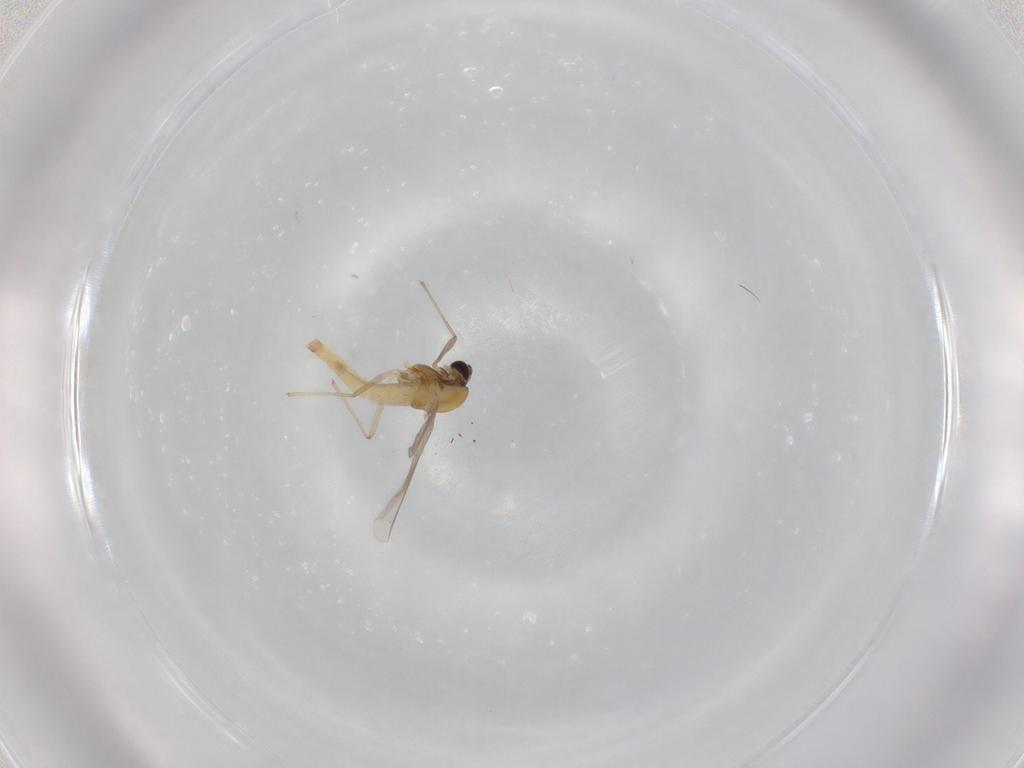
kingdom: Animalia
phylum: Arthropoda
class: Insecta
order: Diptera
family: Chironomidae
